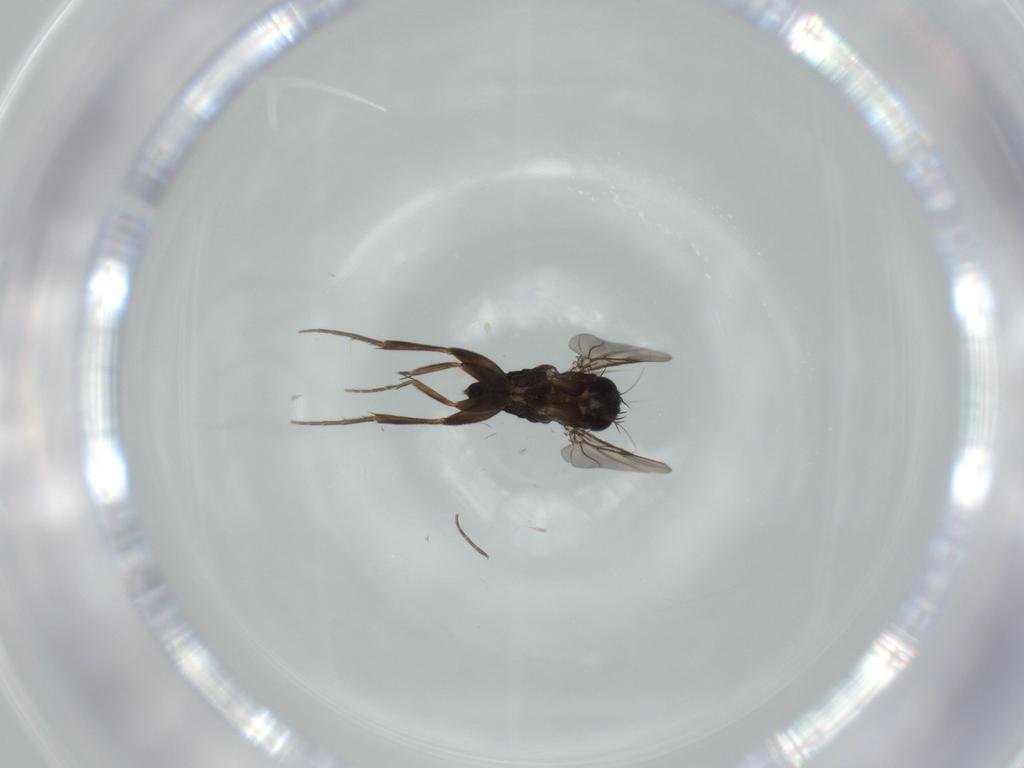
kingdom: Animalia
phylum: Arthropoda
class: Insecta
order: Diptera
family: Cecidomyiidae
